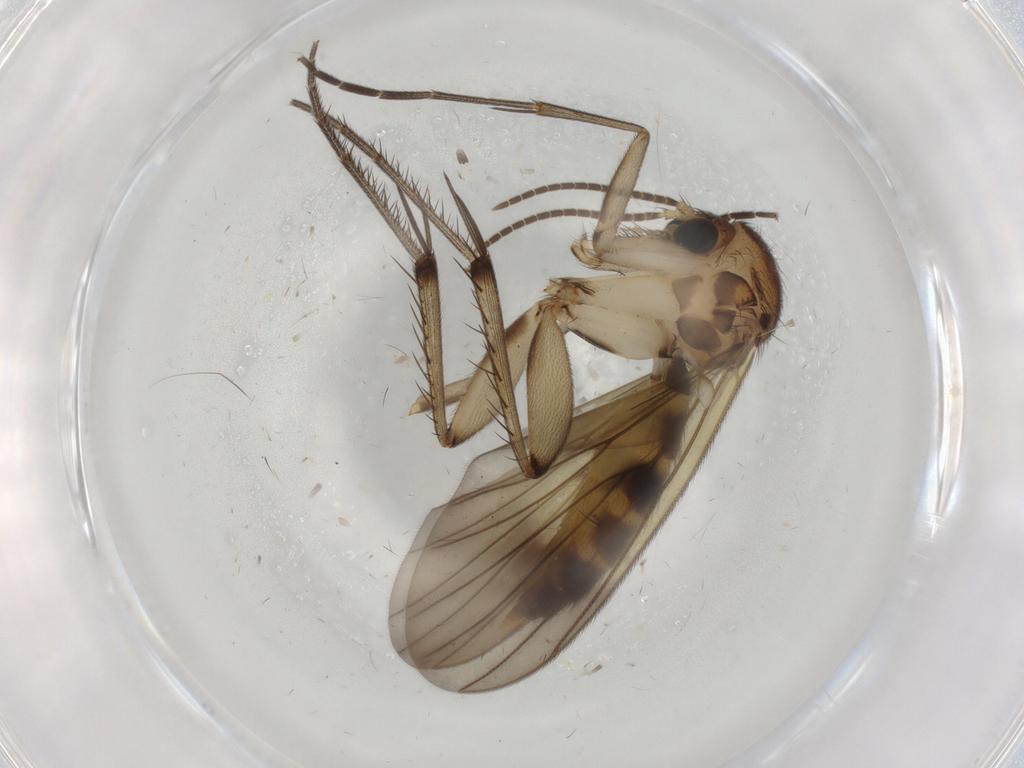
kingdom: Animalia
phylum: Arthropoda
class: Insecta
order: Diptera
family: Mycetophilidae
